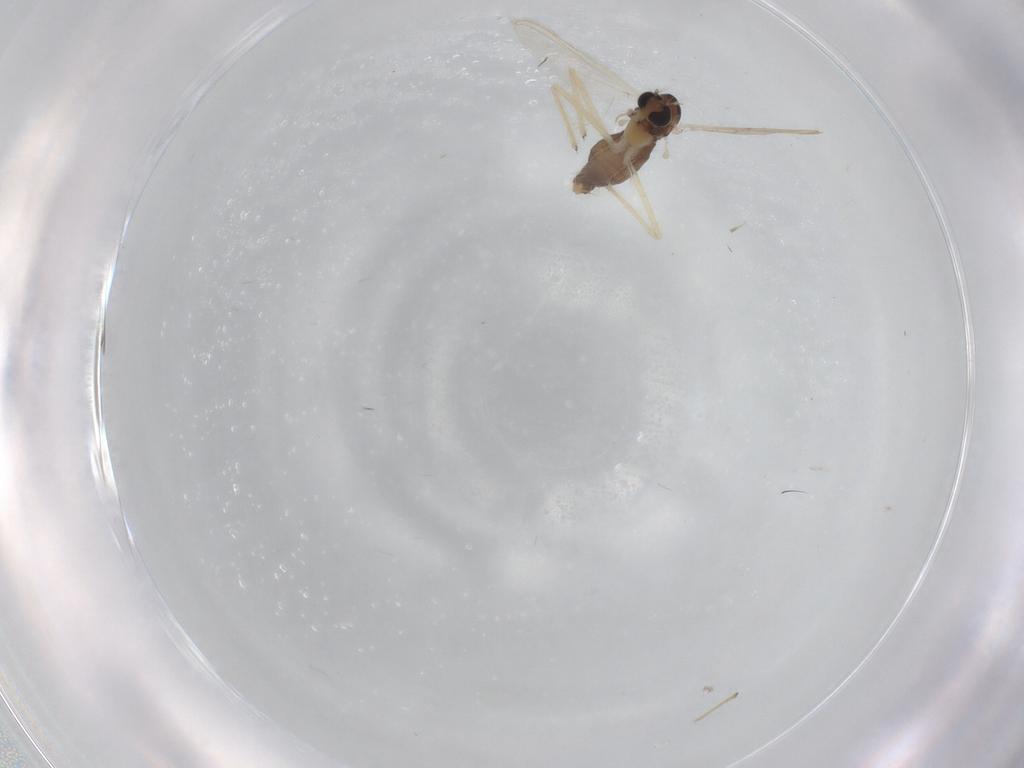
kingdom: Animalia
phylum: Arthropoda
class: Insecta
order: Diptera
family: Chironomidae
